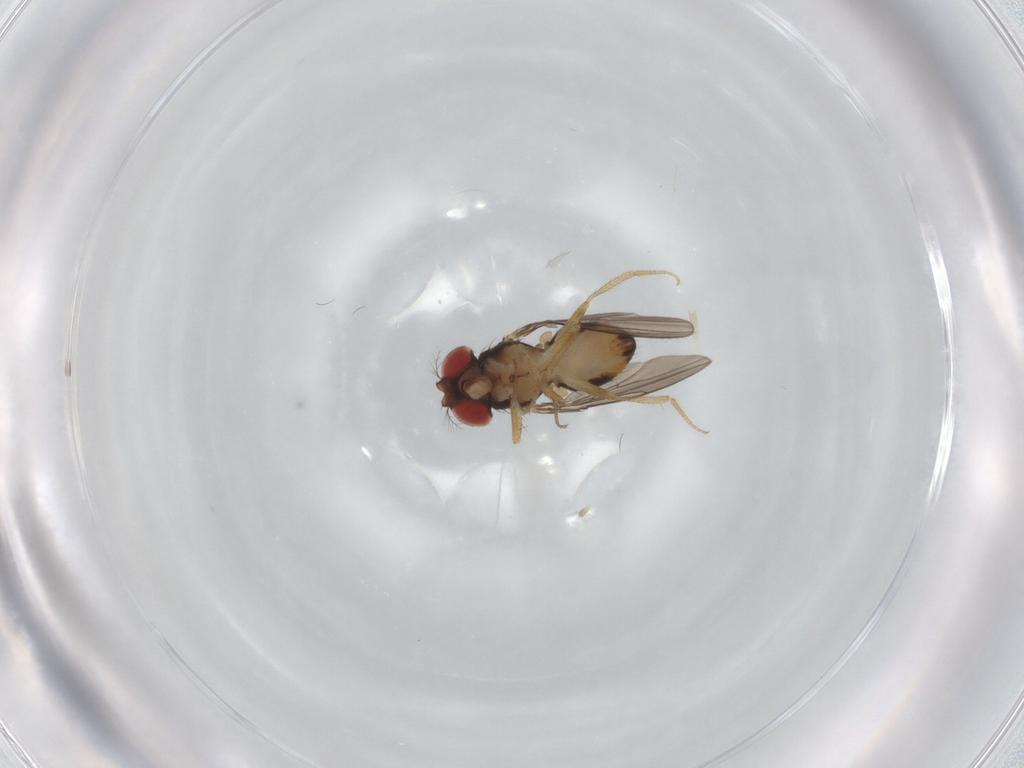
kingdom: Animalia
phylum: Arthropoda
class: Insecta
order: Diptera
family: Drosophilidae
